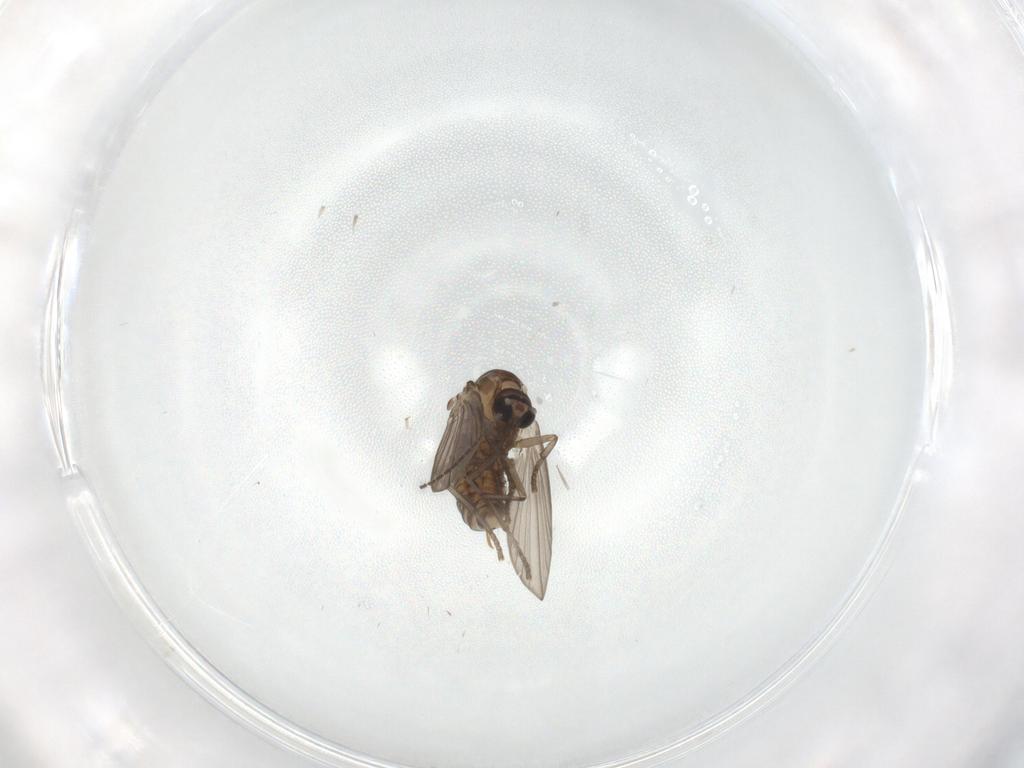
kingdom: Animalia
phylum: Arthropoda
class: Insecta
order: Diptera
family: Psychodidae
